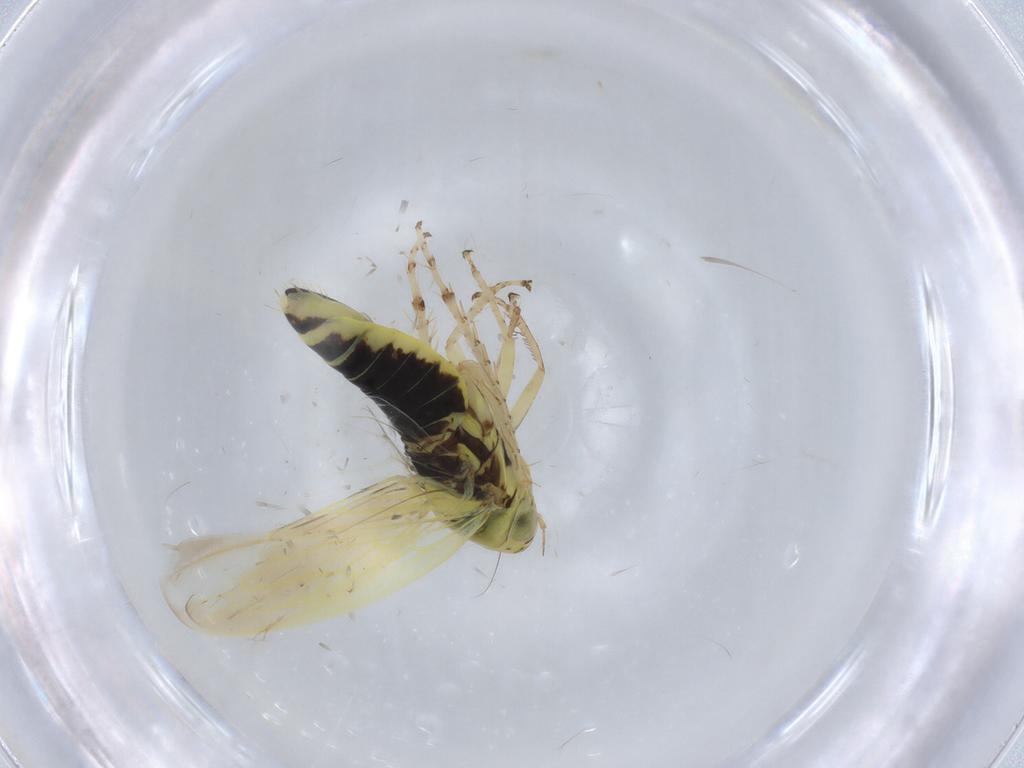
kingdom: Animalia
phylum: Arthropoda
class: Insecta
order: Hemiptera
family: Cicadellidae
